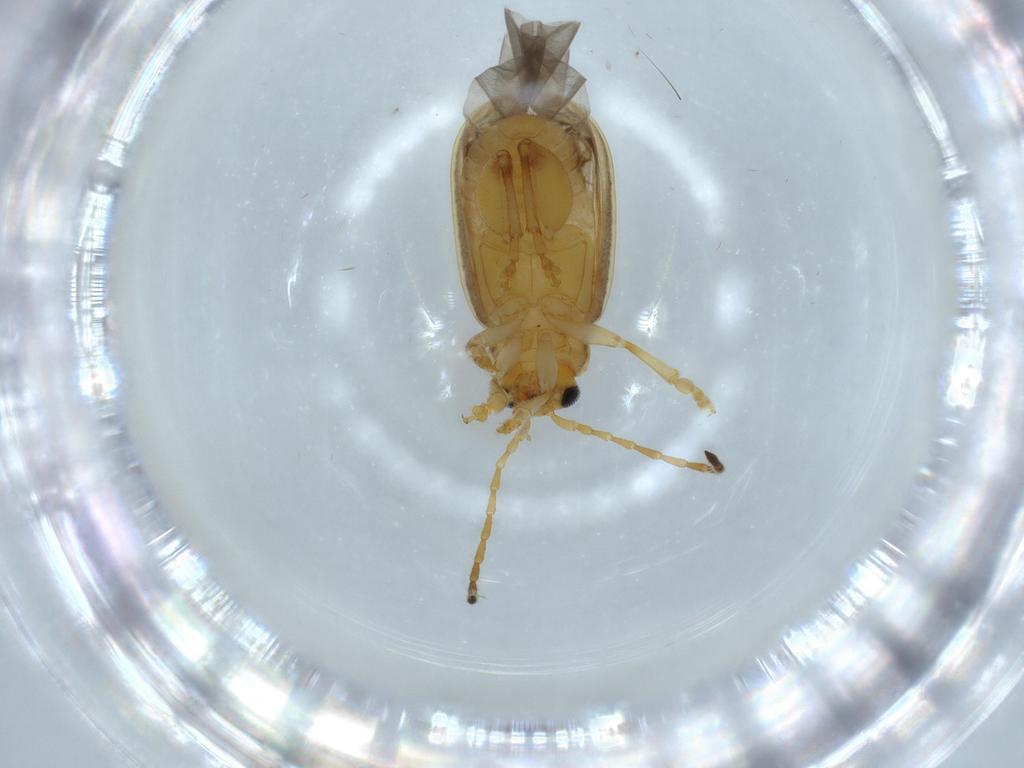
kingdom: Animalia
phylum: Arthropoda
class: Insecta
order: Coleoptera
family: Chrysomelidae
